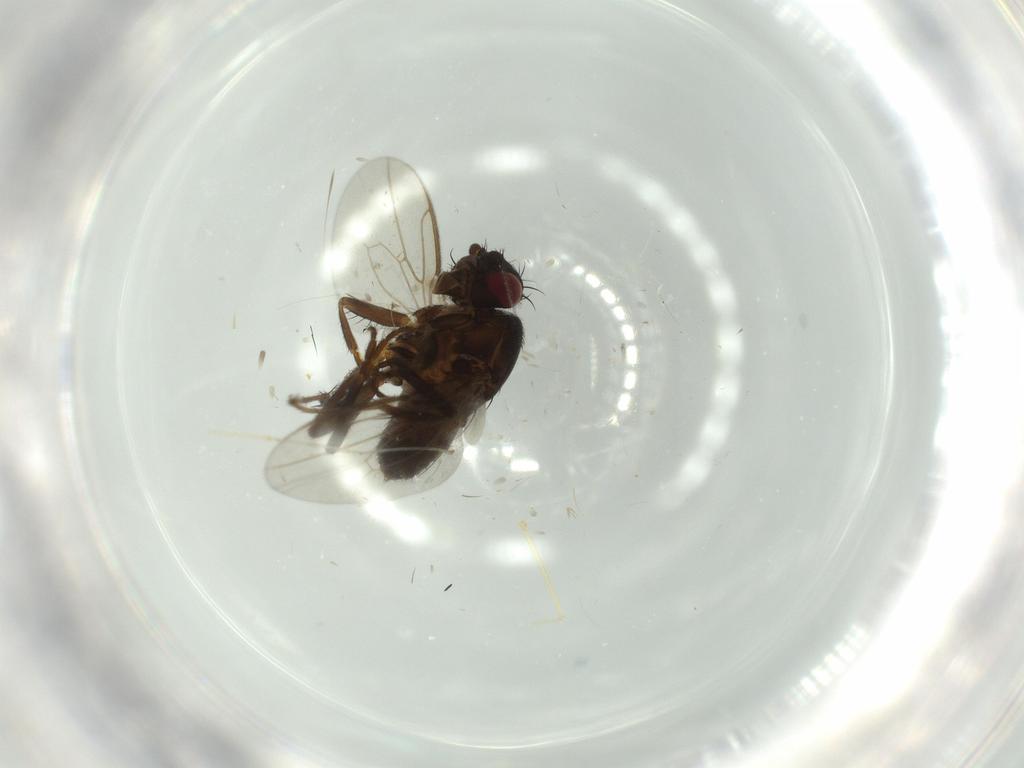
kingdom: Animalia
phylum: Arthropoda
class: Insecta
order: Diptera
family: Sphaeroceridae
